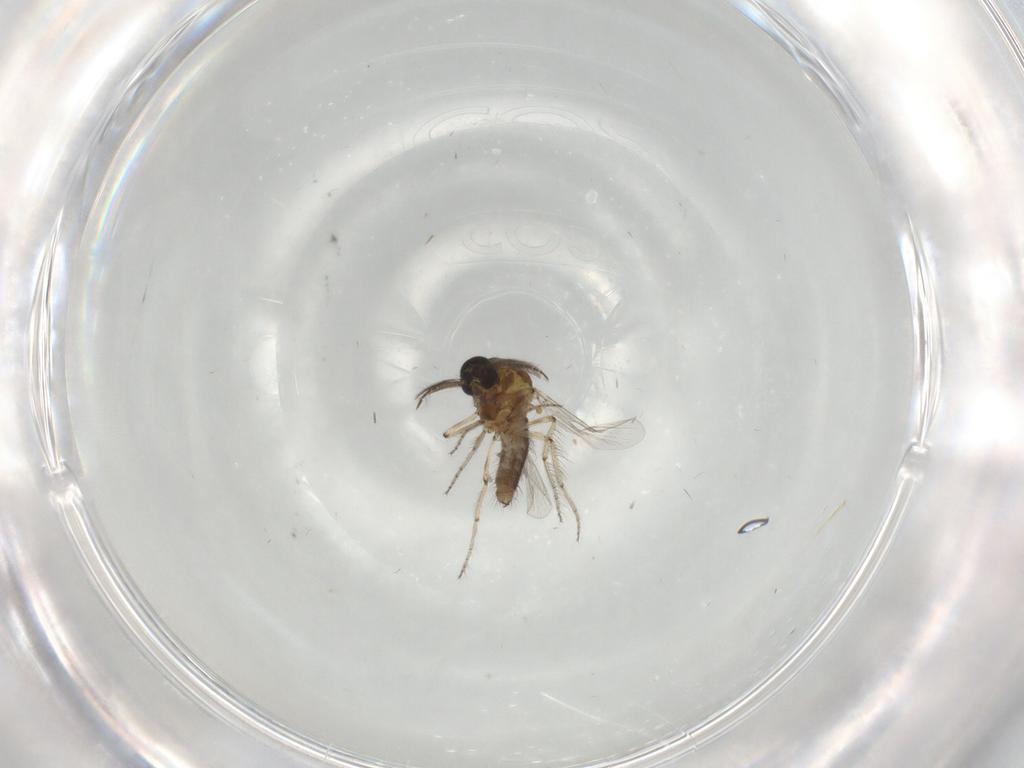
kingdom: Animalia
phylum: Arthropoda
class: Insecta
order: Diptera
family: Ceratopogonidae
